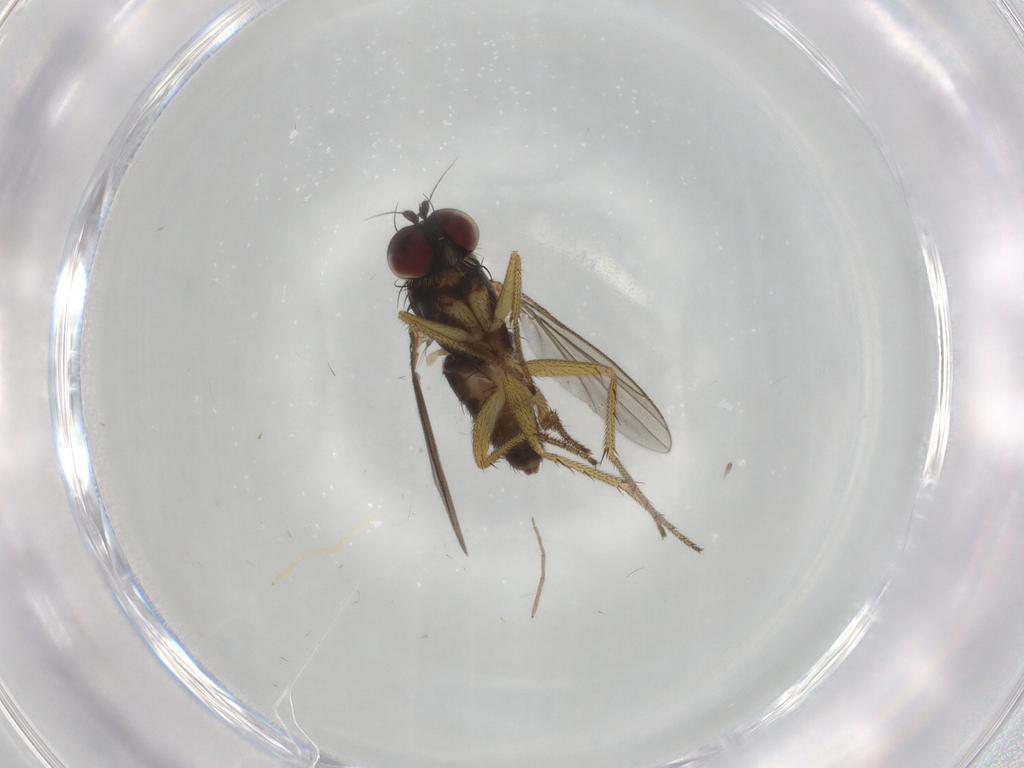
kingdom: Animalia
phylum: Arthropoda
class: Insecta
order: Diptera
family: Dolichopodidae
